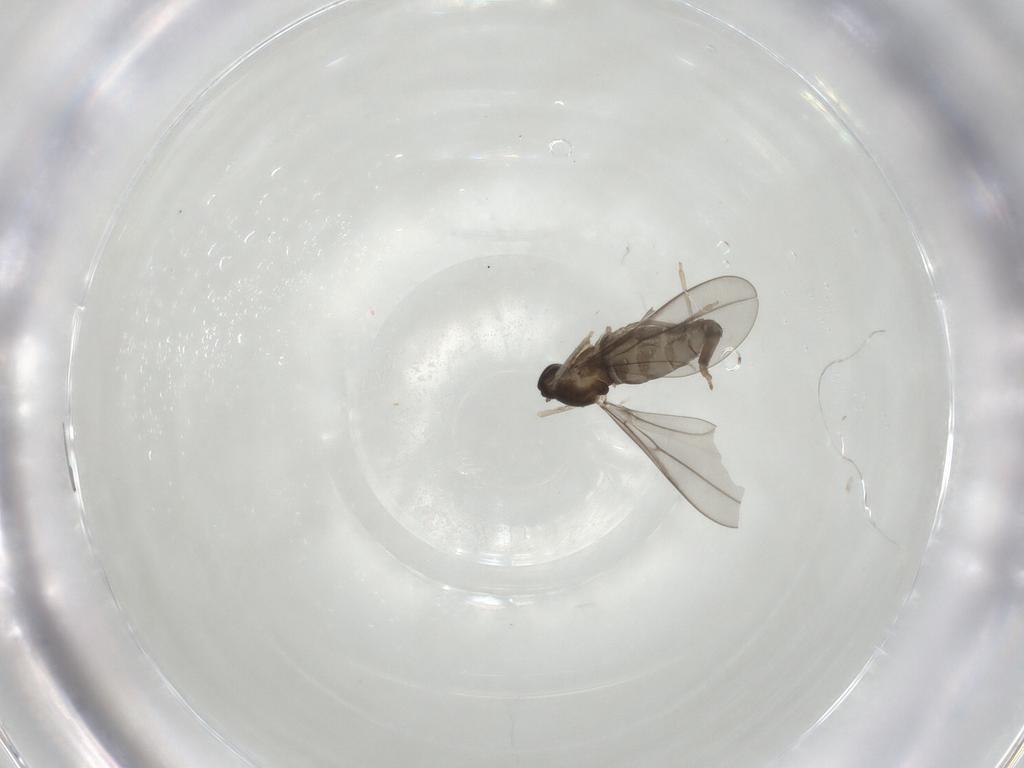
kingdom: Animalia
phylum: Arthropoda
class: Insecta
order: Diptera
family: Cecidomyiidae
